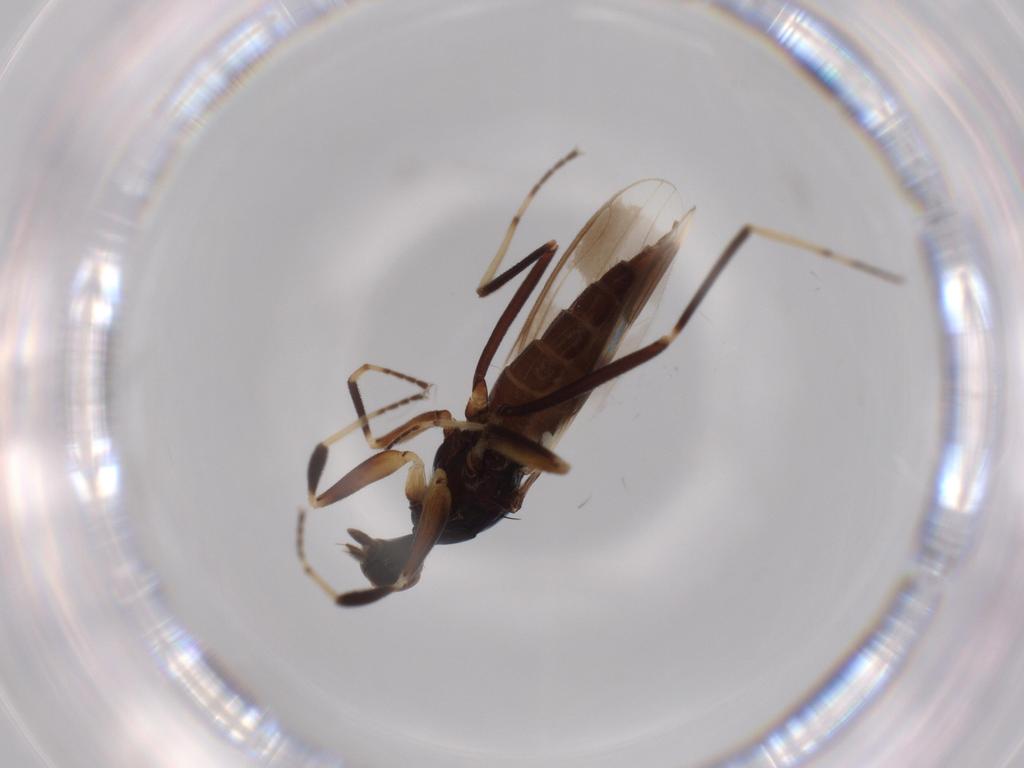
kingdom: Animalia
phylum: Arthropoda
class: Insecta
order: Diptera
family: Hybotidae
